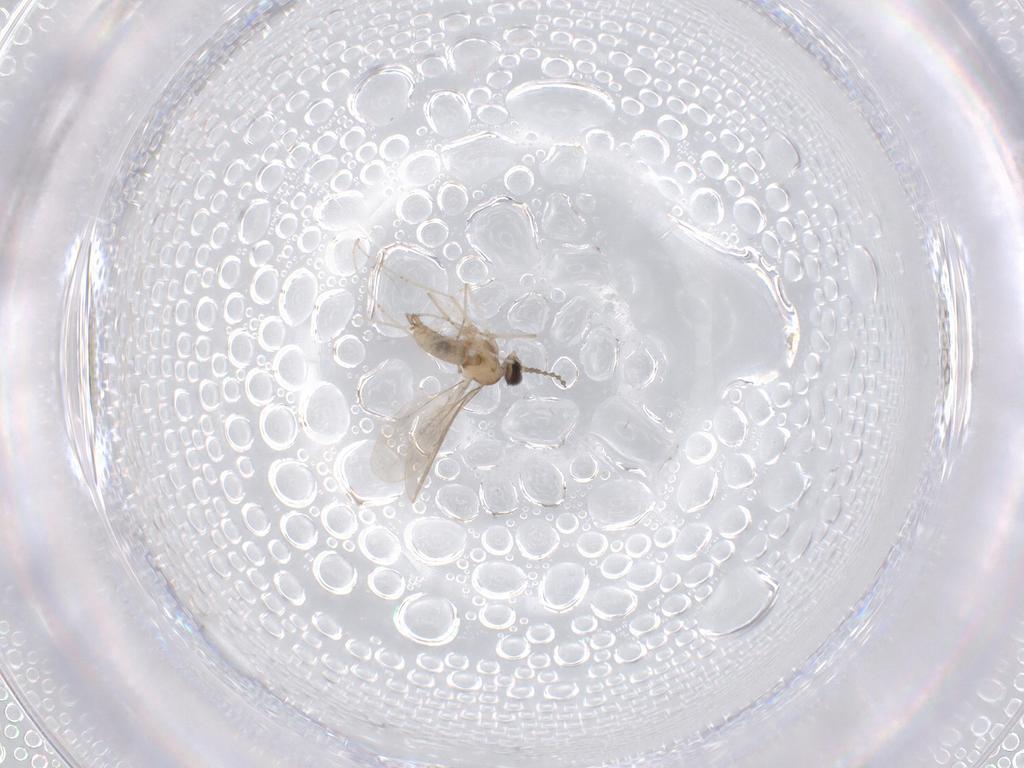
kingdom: Animalia
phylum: Arthropoda
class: Insecta
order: Diptera
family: Cecidomyiidae
